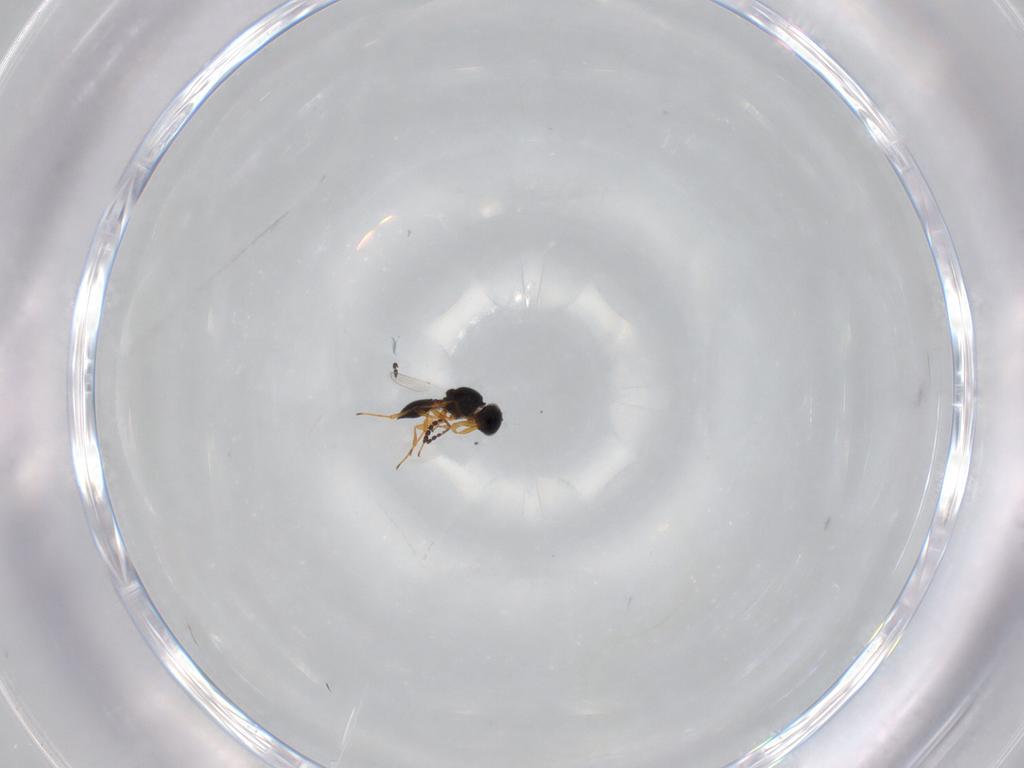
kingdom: Animalia
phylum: Arthropoda
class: Insecta
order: Hymenoptera
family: Platygastridae
